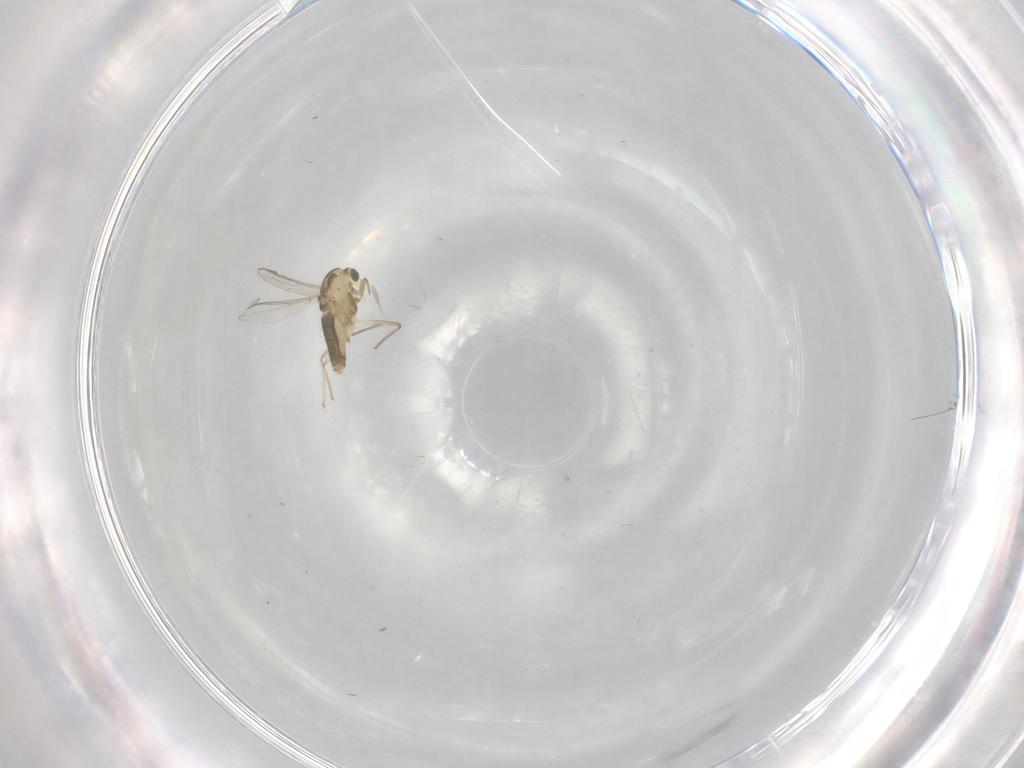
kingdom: Animalia
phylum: Arthropoda
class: Insecta
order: Diptera
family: Chironomidae
